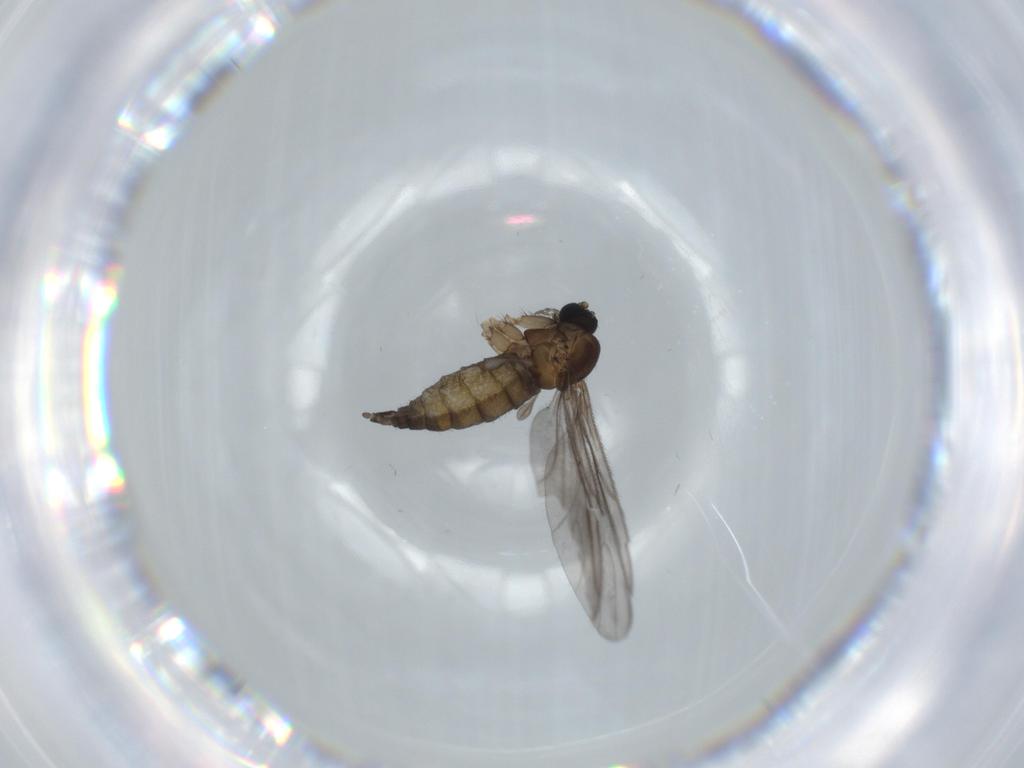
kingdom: Animalia
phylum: Arthropoda
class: Insecta
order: Diptera
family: Sciaridae
